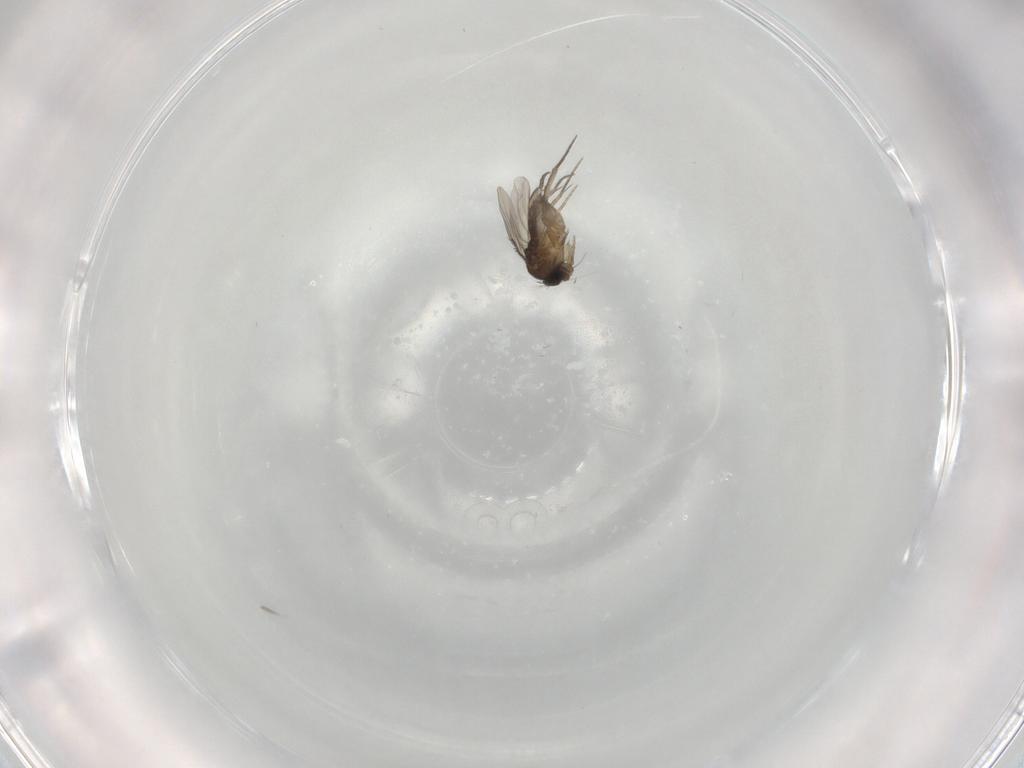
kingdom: Animalia
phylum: Arthropoda
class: Insecta
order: Diptera
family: Phoridae
